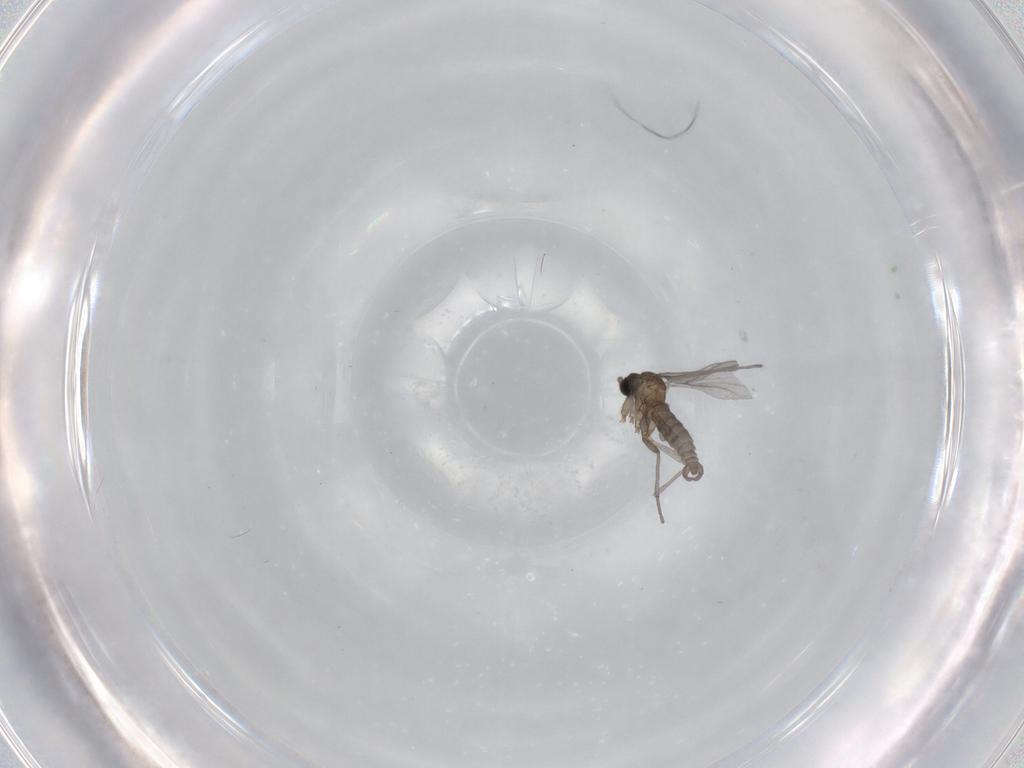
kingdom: Animalia
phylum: Arthropoda
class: Insecta
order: Diptera
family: Sciaridae
